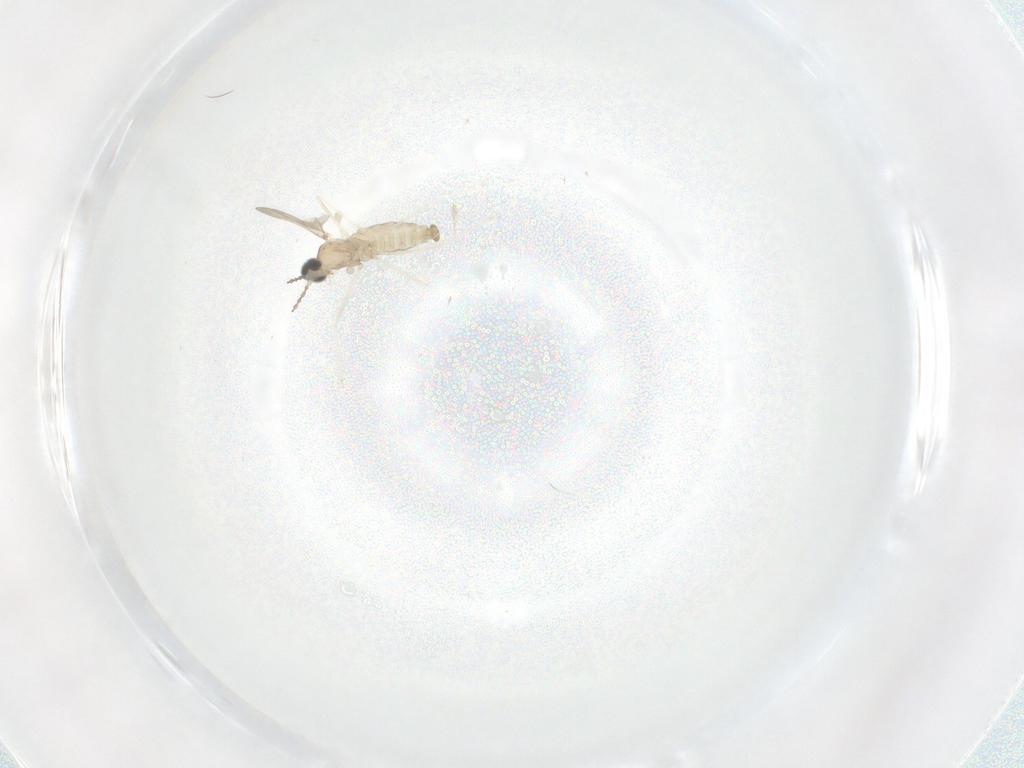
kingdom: Animalia
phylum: Arthropoda
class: Insecta
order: Diptera
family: Cecidomyiidae
